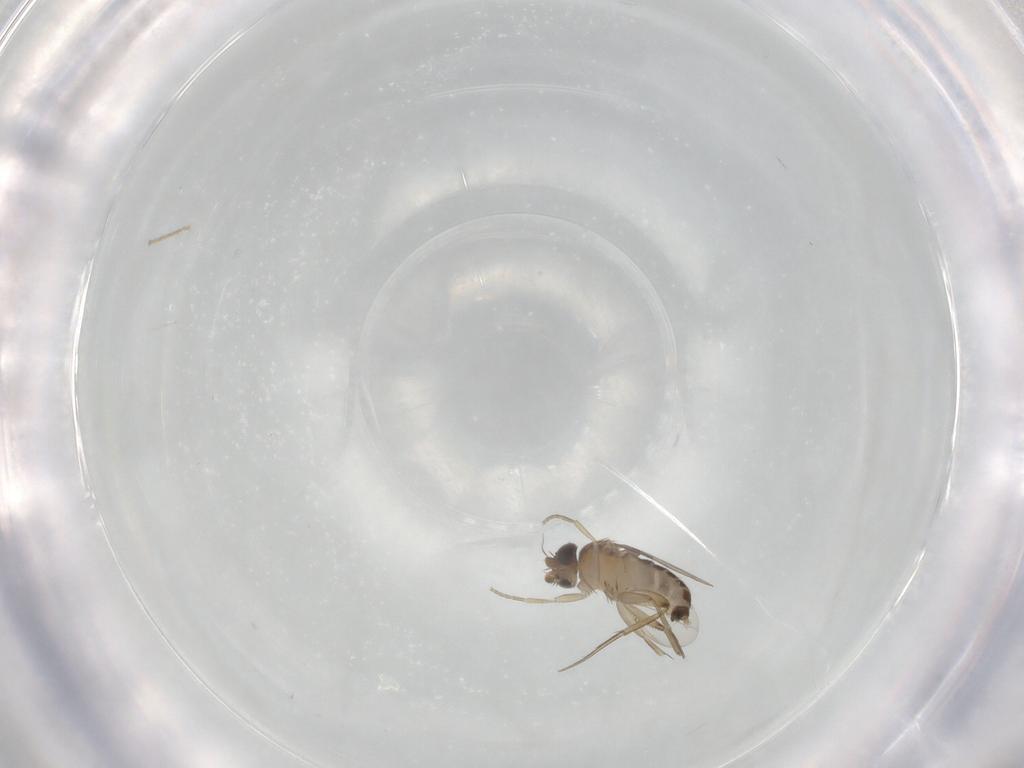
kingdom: Animalia
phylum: Arthropoda
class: Insecta
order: Diptera
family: Phoridae
